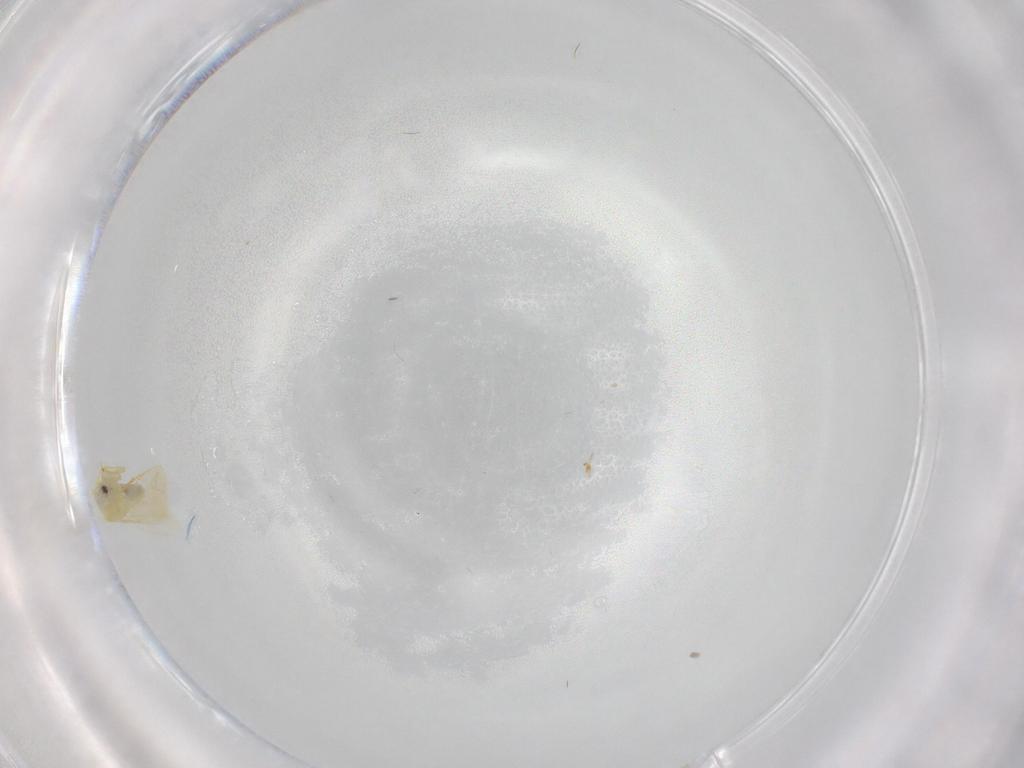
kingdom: Animalia
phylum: Arthropoda
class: Insecta
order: Hemiptera
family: Aleyrodidae
